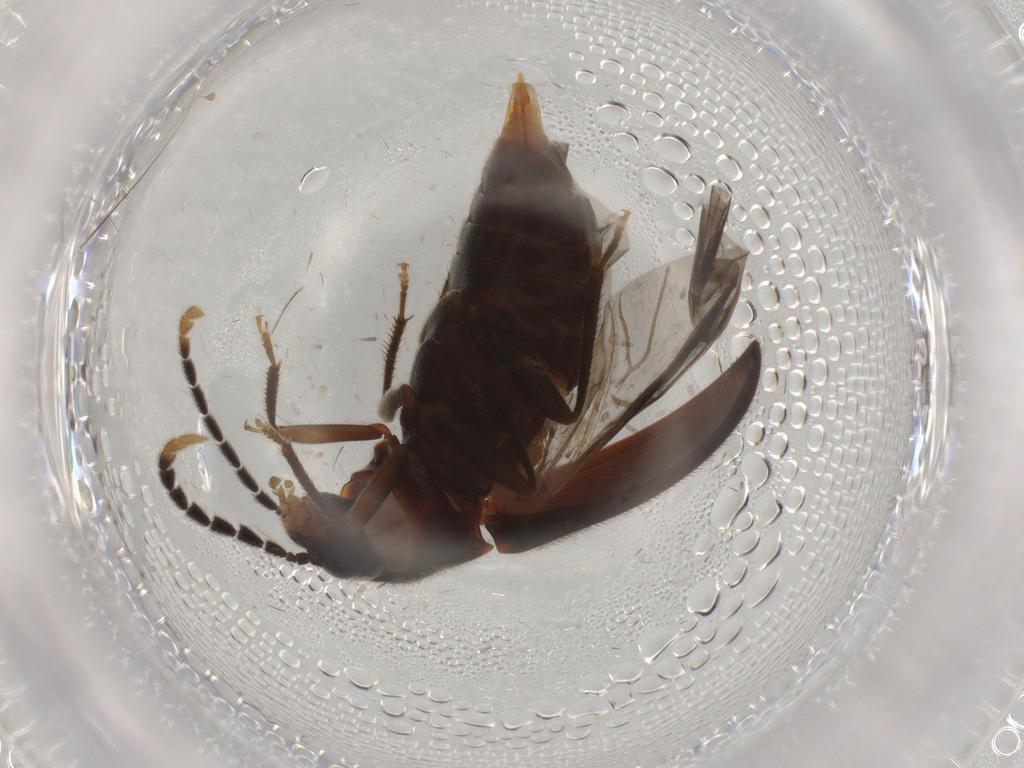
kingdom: Animalia
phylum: Arthropoda
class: Insecta
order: Coleoptera
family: Ptilodactylidae
